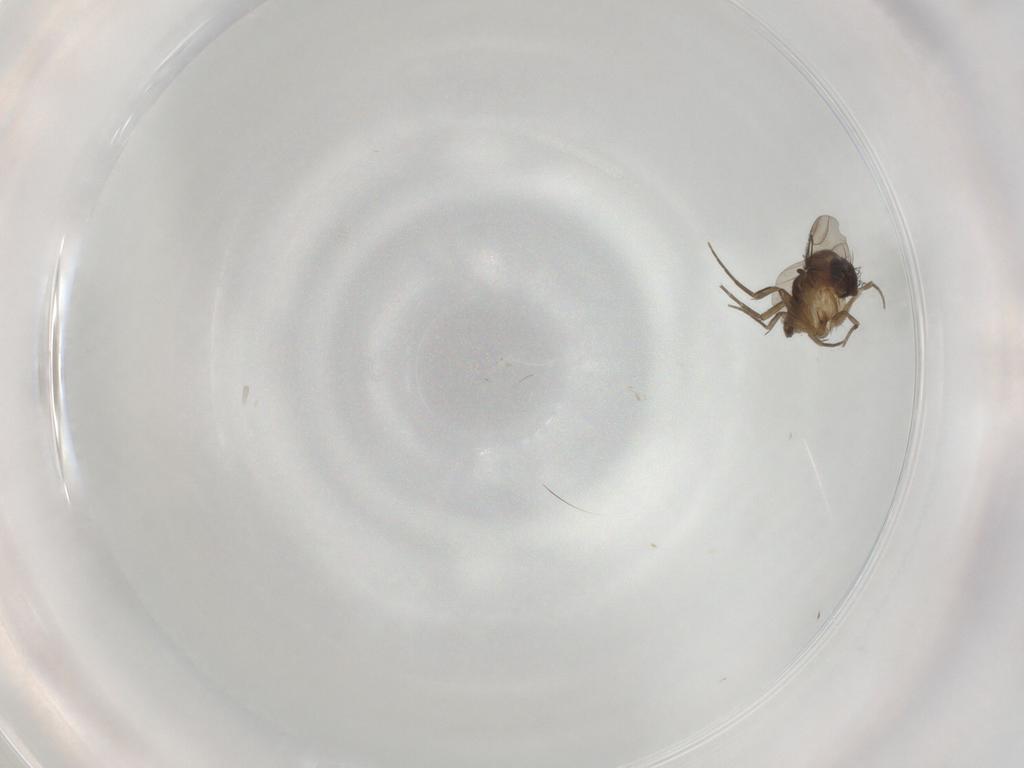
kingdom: Animalia
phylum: Arthropoda
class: Insecta
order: Diptera
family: Phoridae
